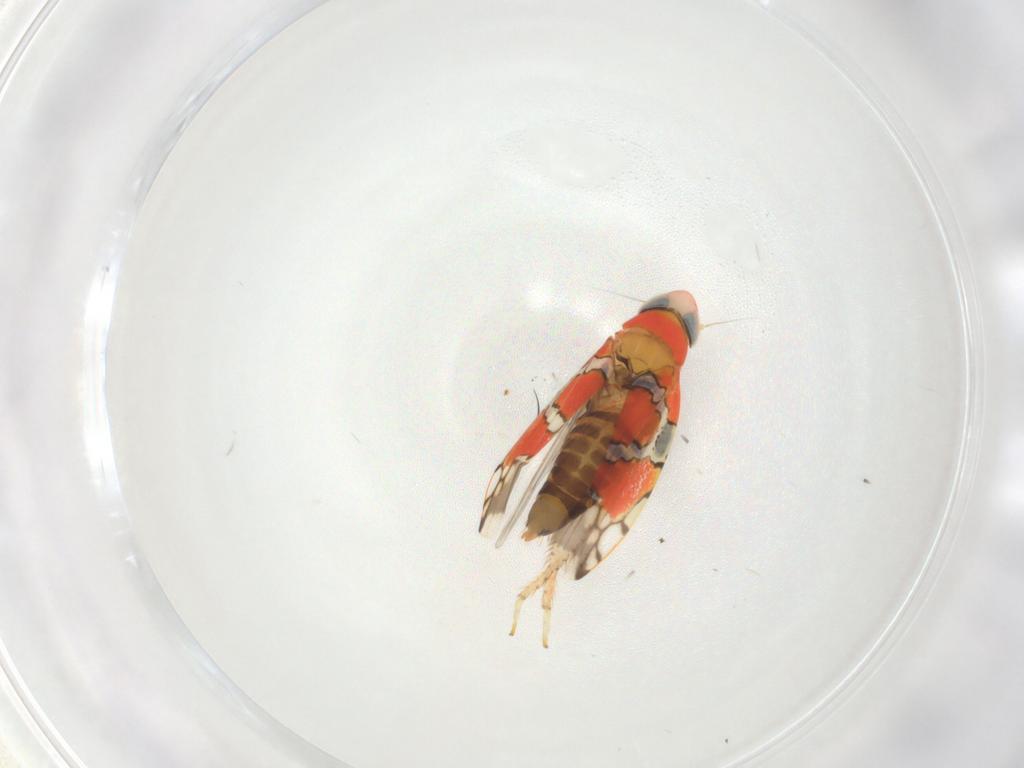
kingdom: Animalia
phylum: Arthropoda
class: Insecta
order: Hemiptera
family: Cicadellidae
